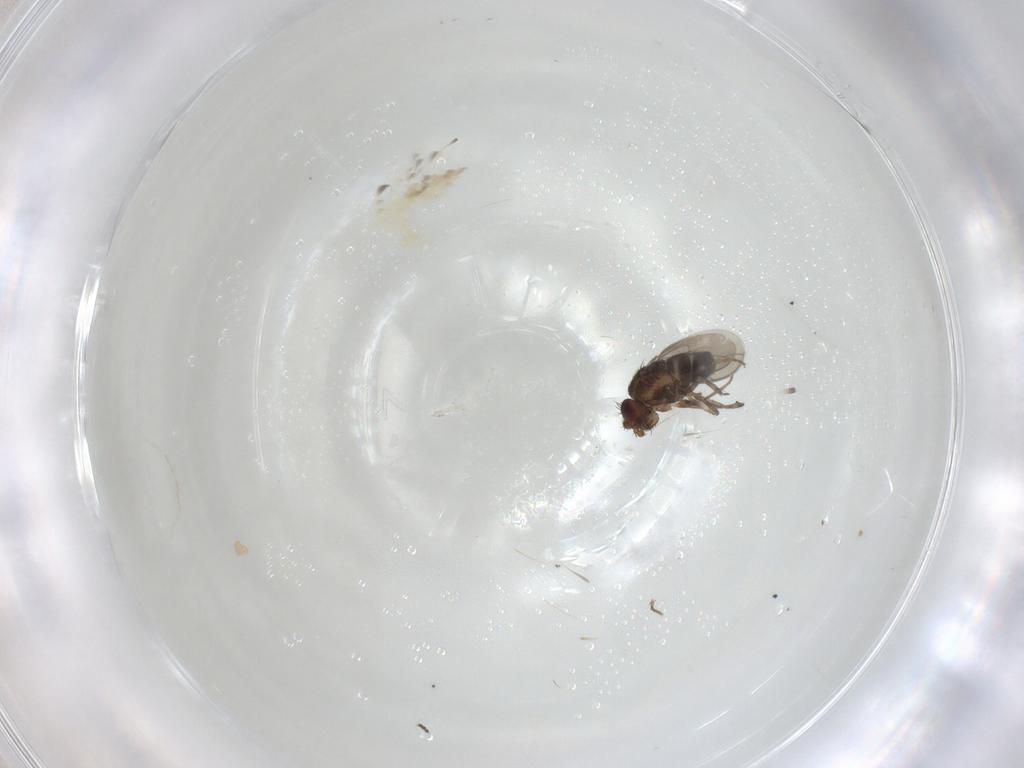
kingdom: Animalia
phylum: Arthropoda
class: Insecta
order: Diptera
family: Sphaeroceridae
